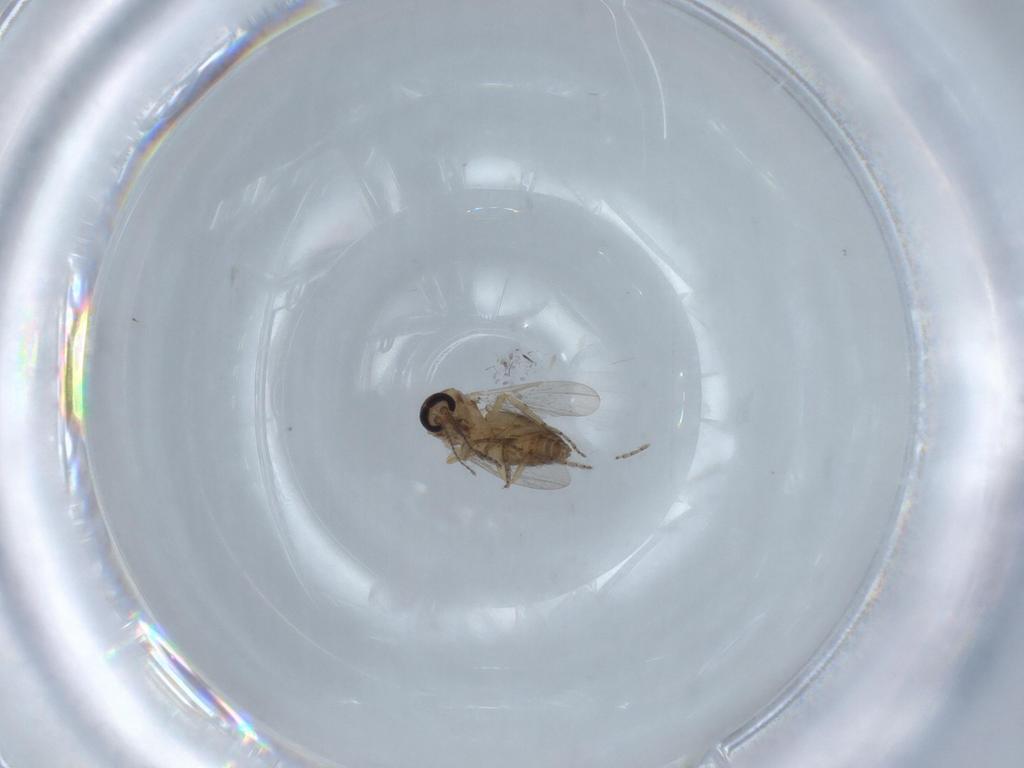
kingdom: Animalia
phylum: Arthropoda
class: Insecta
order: Diptera
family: Ceratopogonidae
